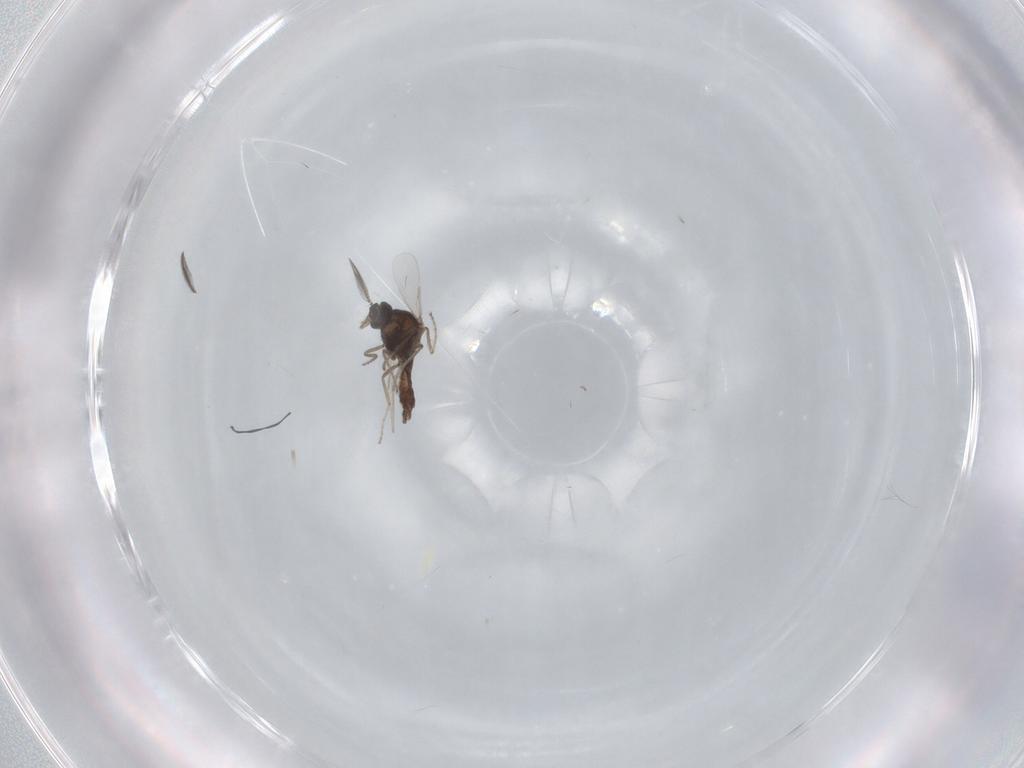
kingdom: Animalia
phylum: Arthropoda
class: Insecta
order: Diptera
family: Ceratopogonidae
